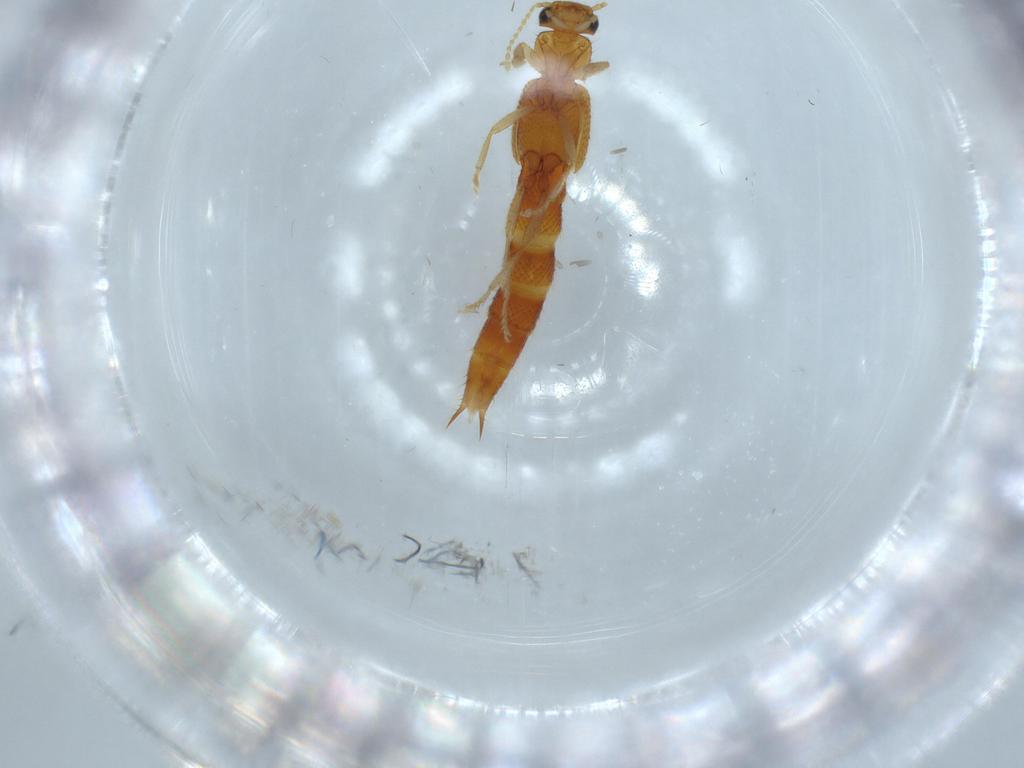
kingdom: Animalia
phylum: Arthropoda
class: Insecta
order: Coleoptera
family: Staphylinidae
